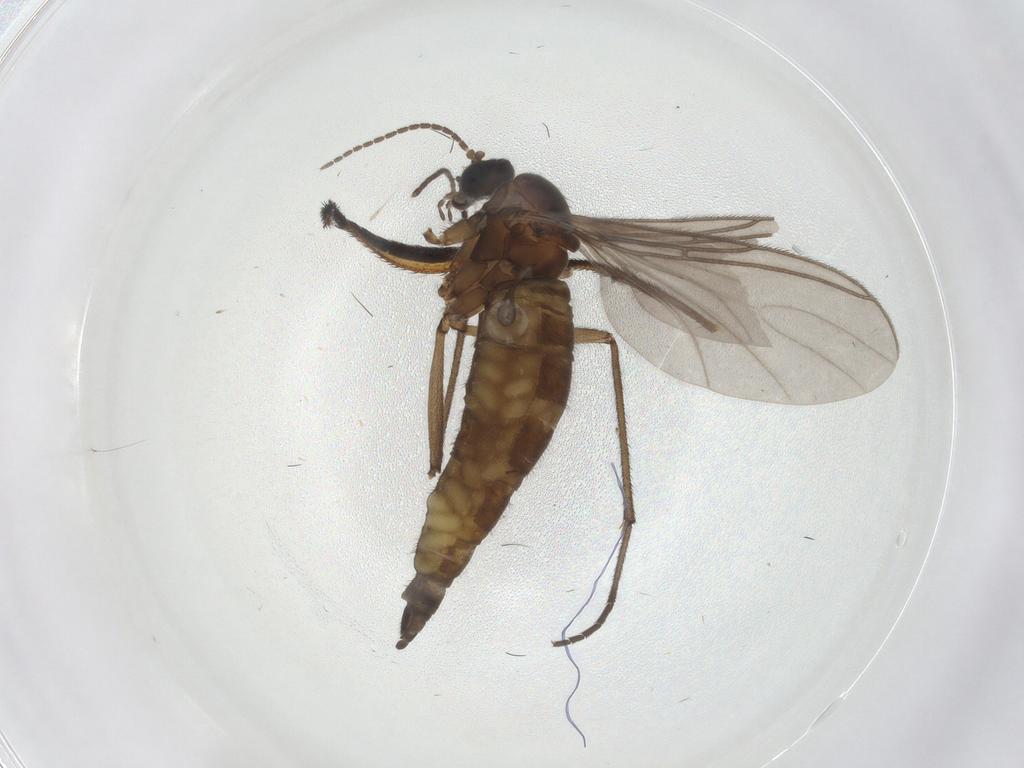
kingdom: Animalia
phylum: Arthropoda
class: Insecta
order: Diptera
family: Sciaridae
